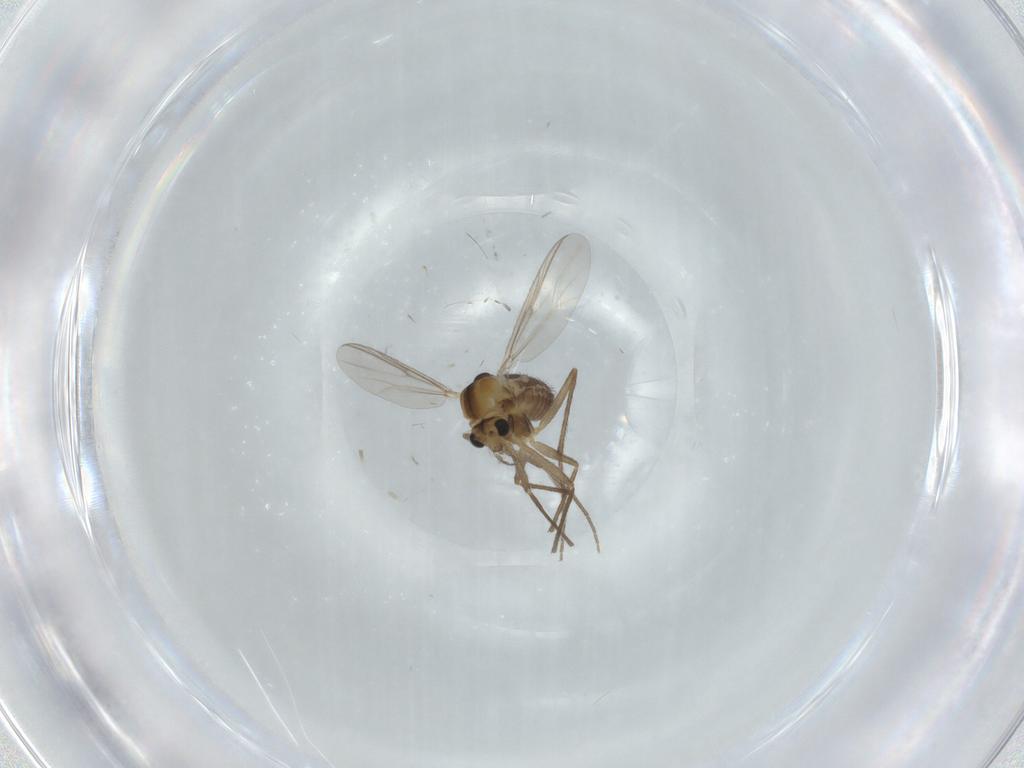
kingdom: Animalia
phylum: Arthropoda
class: Insecta
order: Diptera
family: Chironomidae
